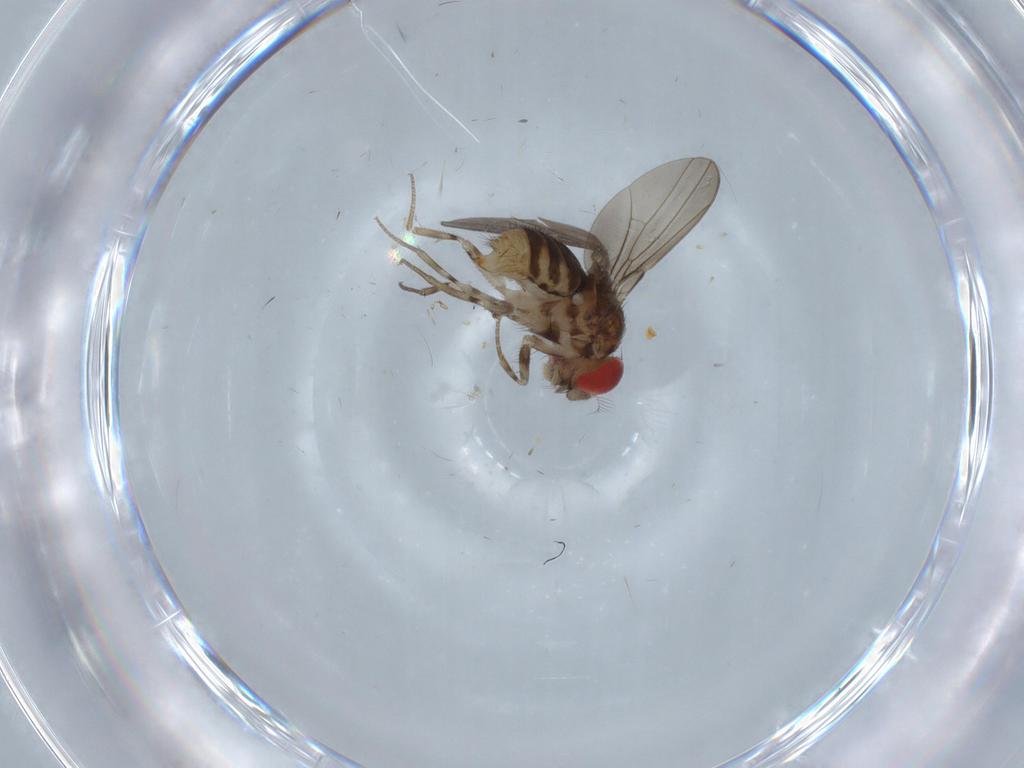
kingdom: Animalia
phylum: Arthropoda
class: Insecta
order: Diptera
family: Drosophilidae
